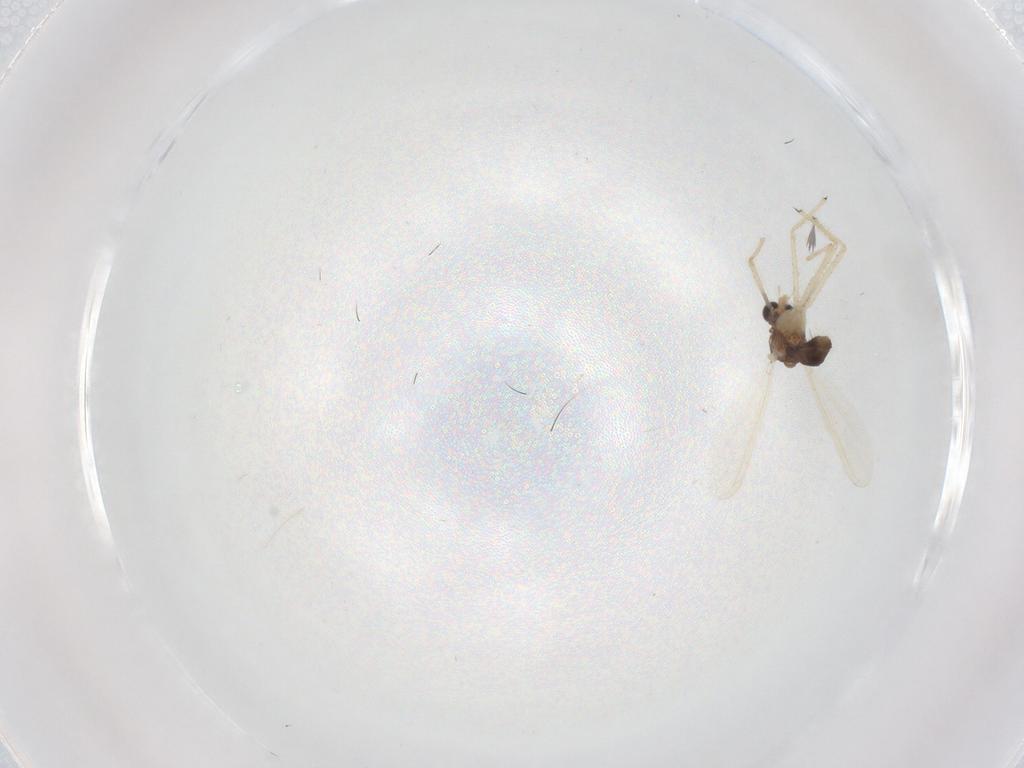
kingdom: Animalia
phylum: Arthropoda
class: Insecta
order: Diptera
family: Chironomidae
